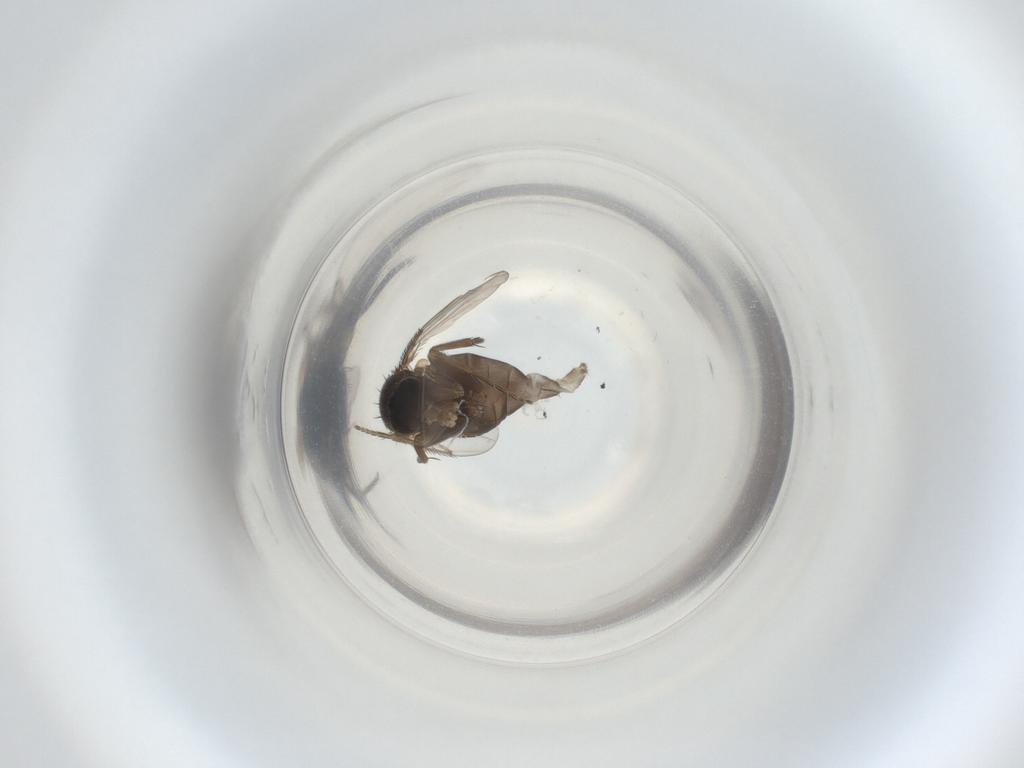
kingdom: Animalia
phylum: Arthropoda
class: Insecta
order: Diptera
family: Phoridae
